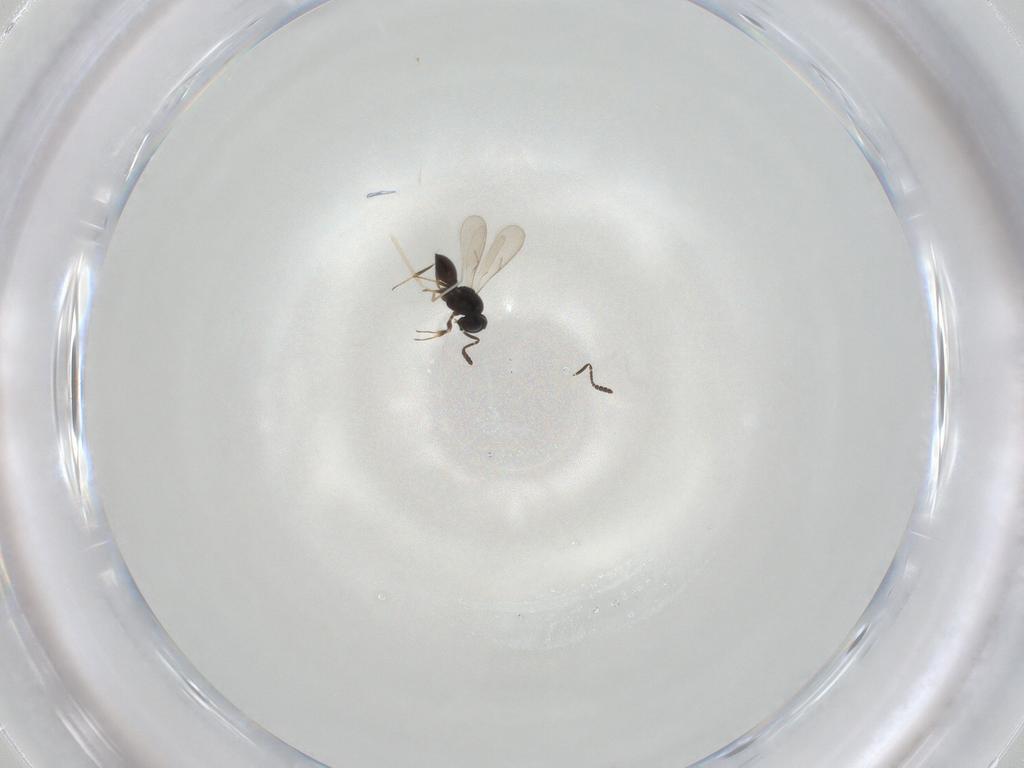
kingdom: Animalia
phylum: Arthropoda
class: Insecta
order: Hymenoptera
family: Scelionidae
